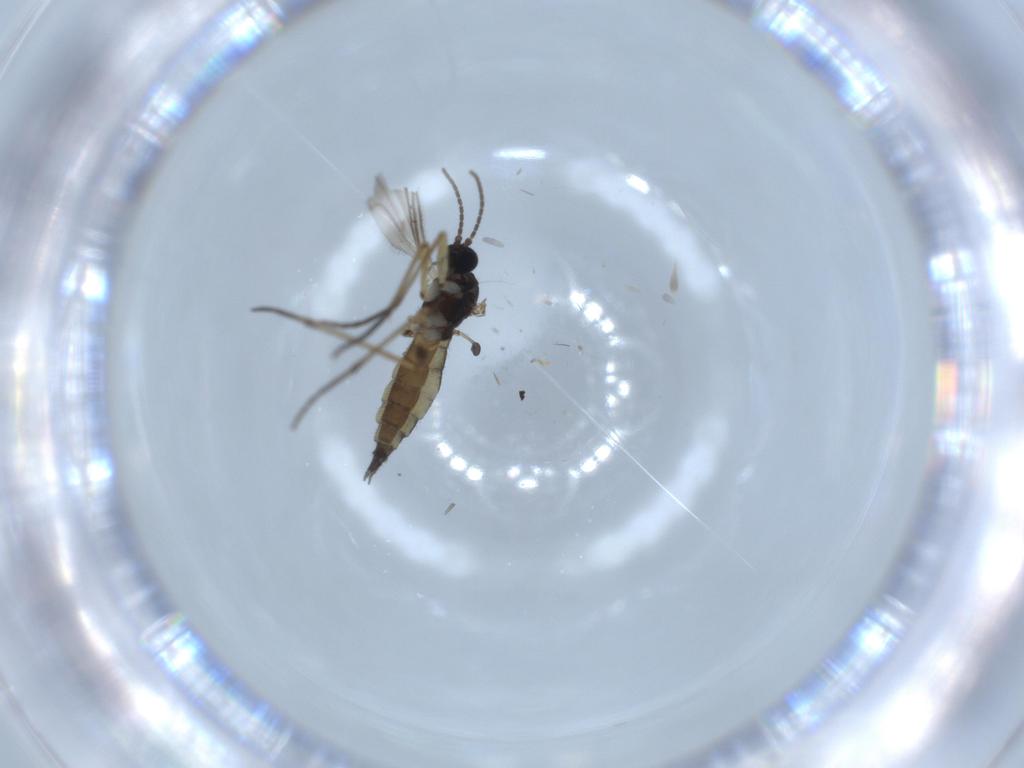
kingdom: Animalia
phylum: Arthropoda
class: Insecta
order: Diptera
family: Sciaridae
